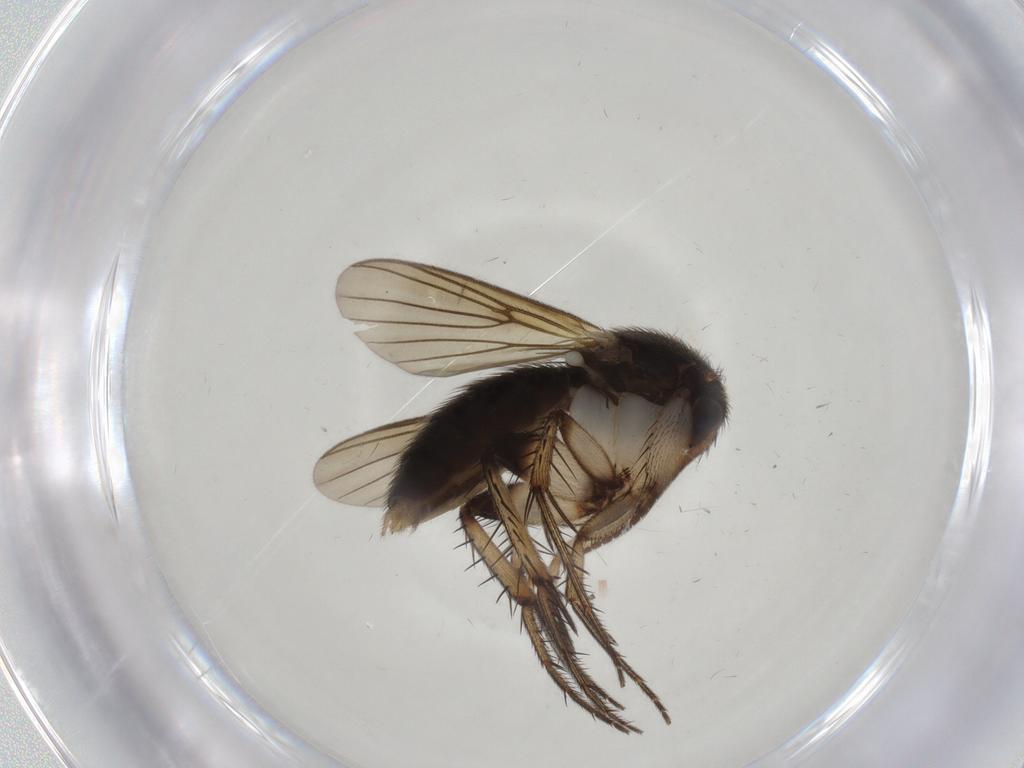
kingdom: Animalia
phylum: Arthropoda
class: Insecta
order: Diptera
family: Mycetophilidae
